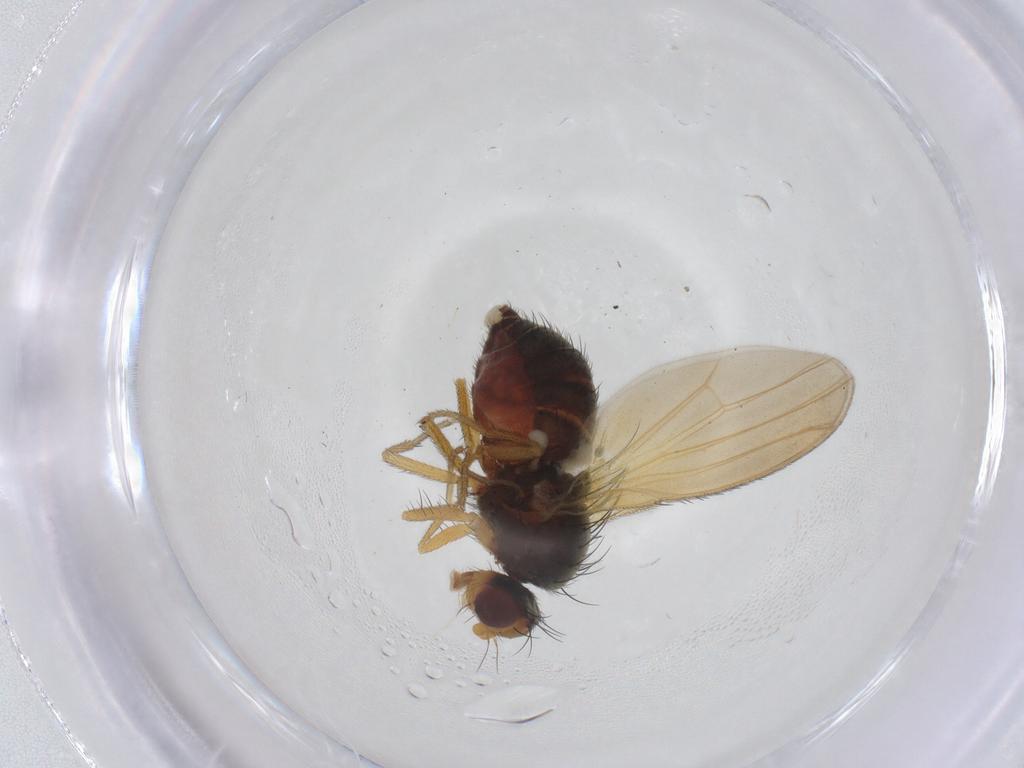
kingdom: Animalia
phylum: Arthropoda
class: Insecta
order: Diptera
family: Heleomyzidae
